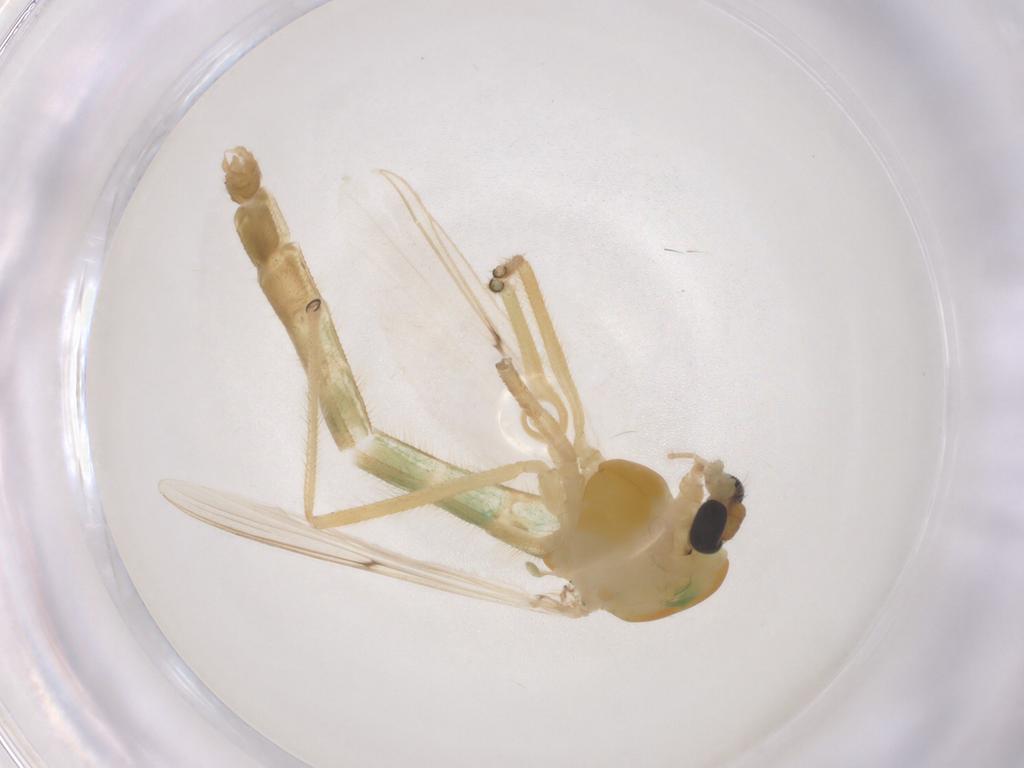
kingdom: Animalia
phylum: Arthropoda
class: Insecta
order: Diptera
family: Chironomidae
